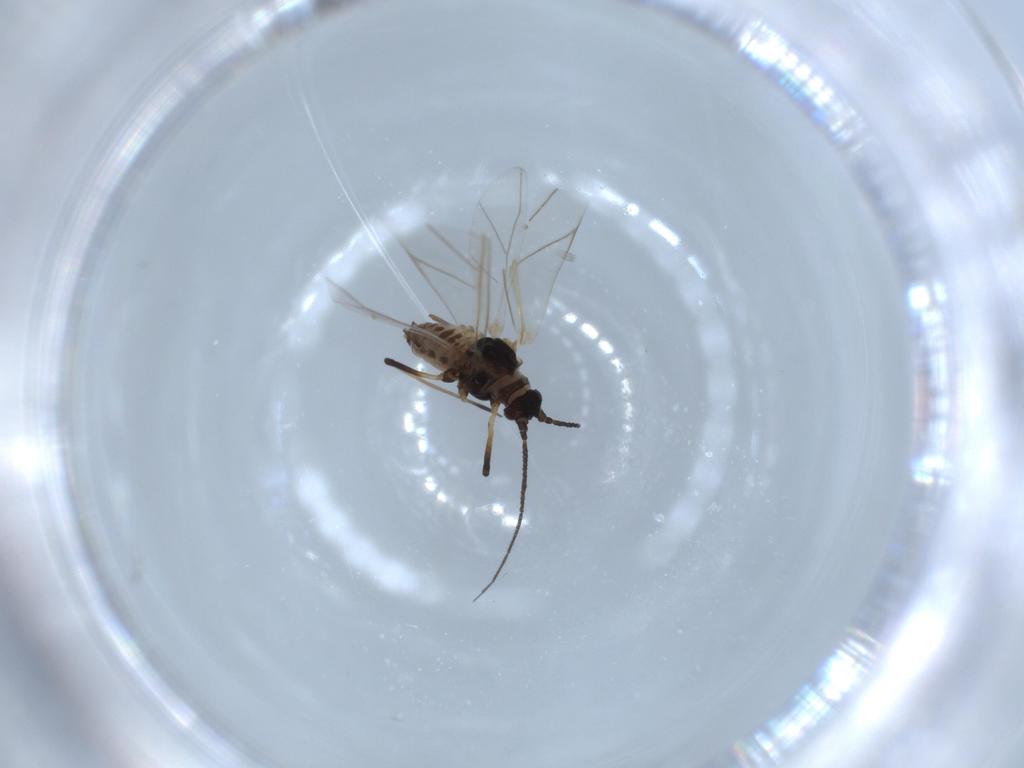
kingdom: Animalia
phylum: Arthropoda
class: Insecta
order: Hemiptera
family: Aphididae
